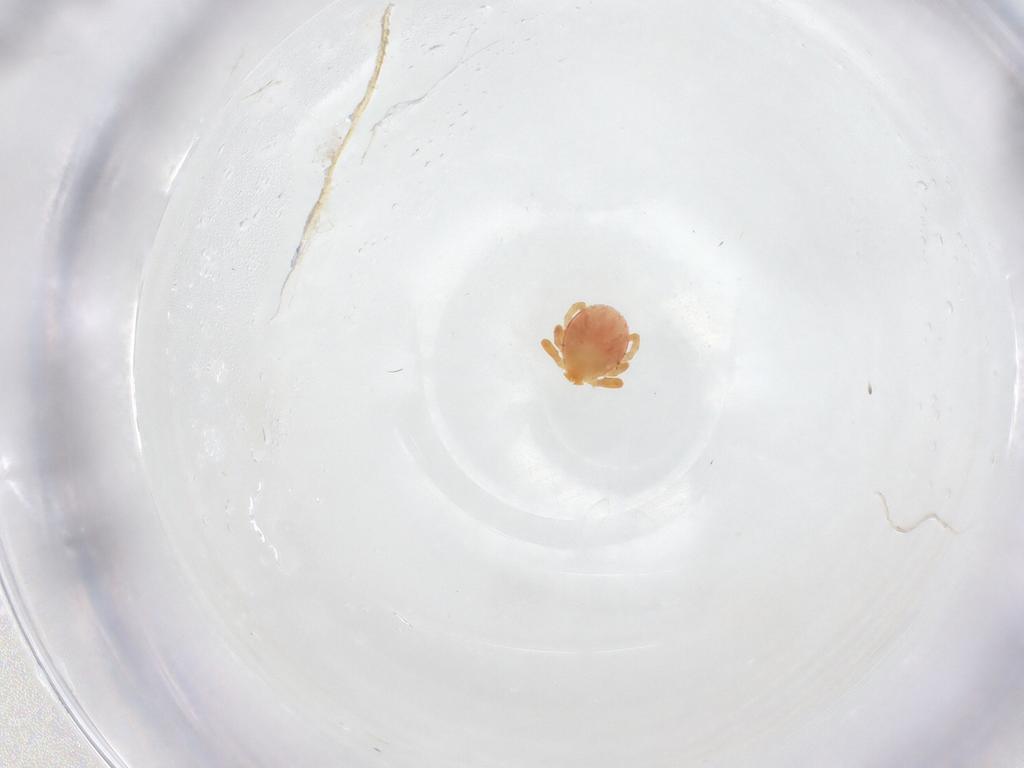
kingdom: Animalia
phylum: Arthropoda
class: Arachnida
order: Ixodida
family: Ixodidae
